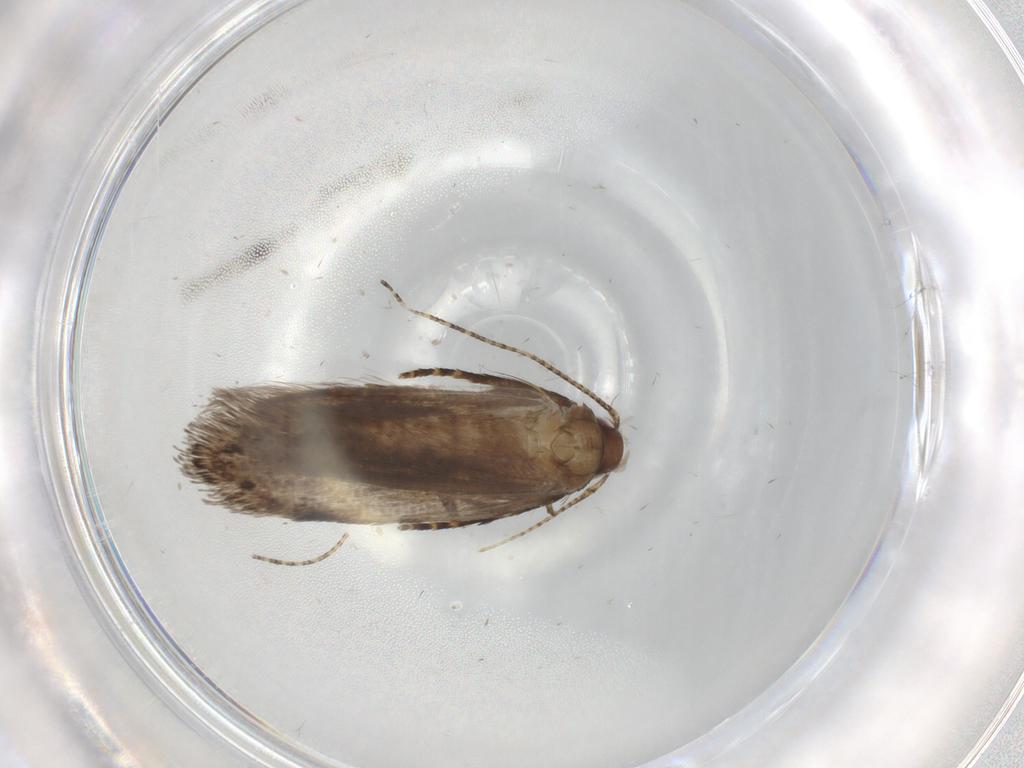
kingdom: Animalia
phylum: Arthropoda
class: Insecta
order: Lepidoptera
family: Gelechiidae
